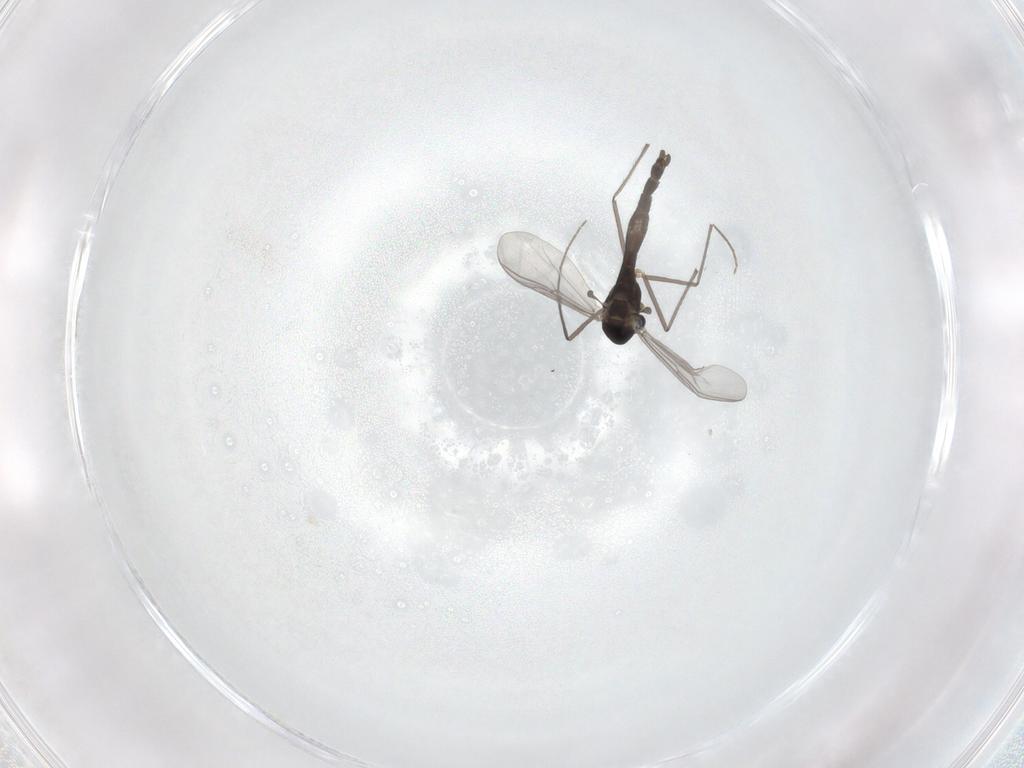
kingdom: Animalia
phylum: Arthropoda
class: Insecta
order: Diptera
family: Chironomidae
